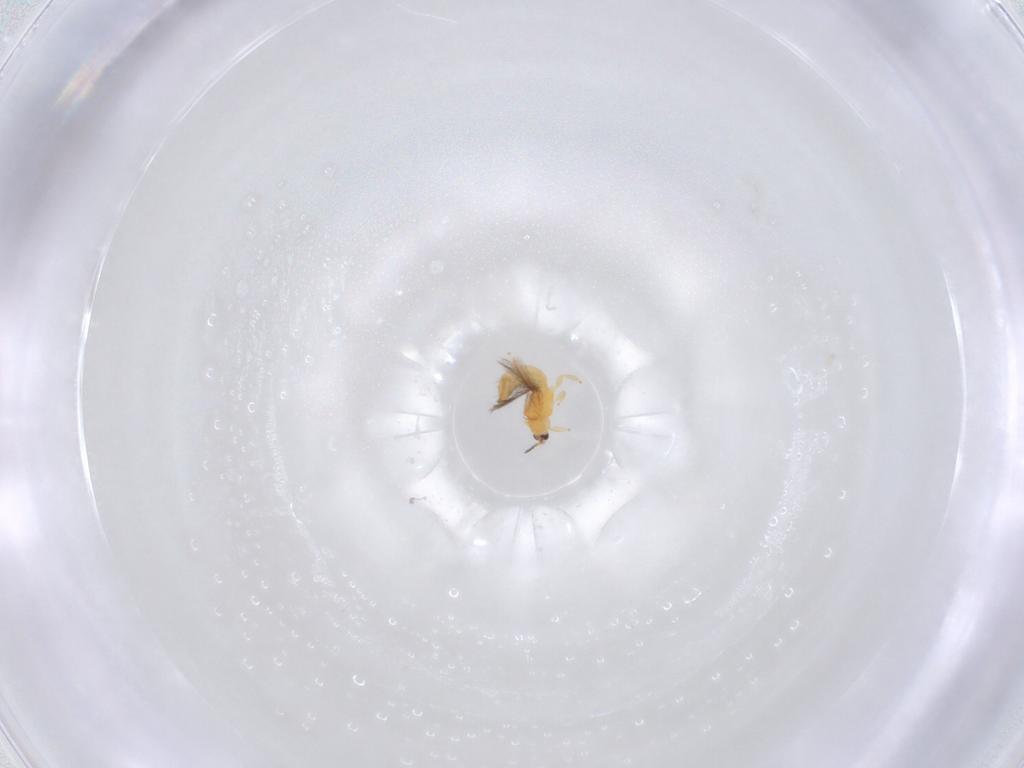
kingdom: Animalia
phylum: Arthropoda
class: Insecta
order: Thysanoptera
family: Thripidae
